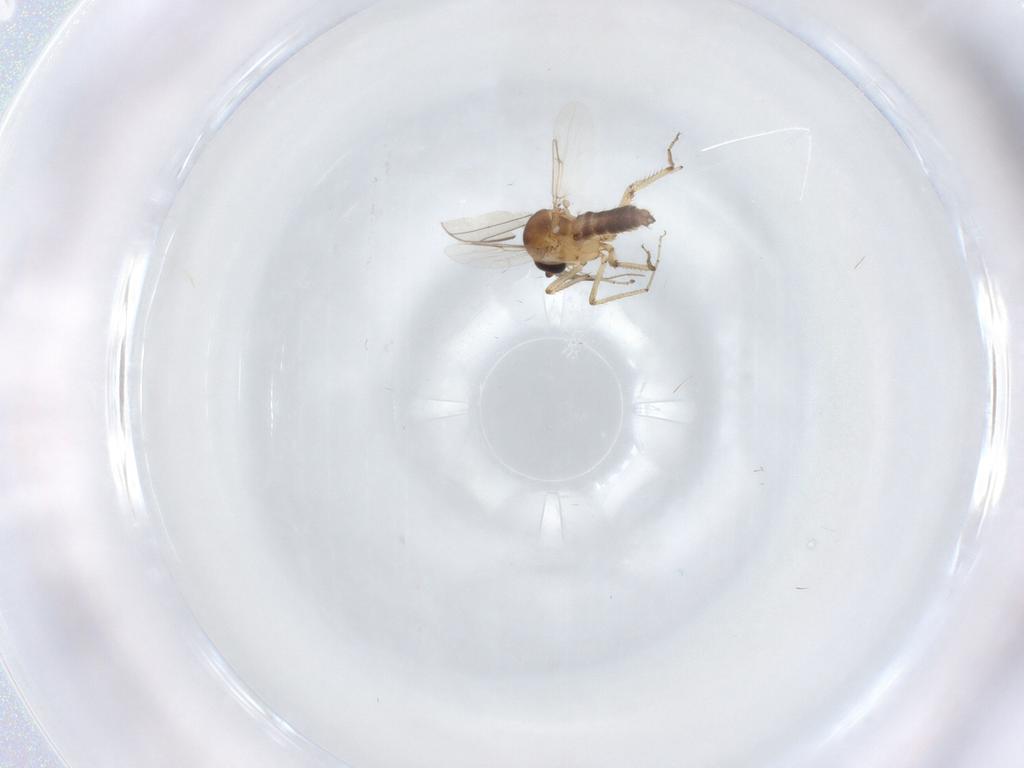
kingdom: Animalia
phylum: Arthropoda
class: Insecta
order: Diptera
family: Ceratopogonidae
